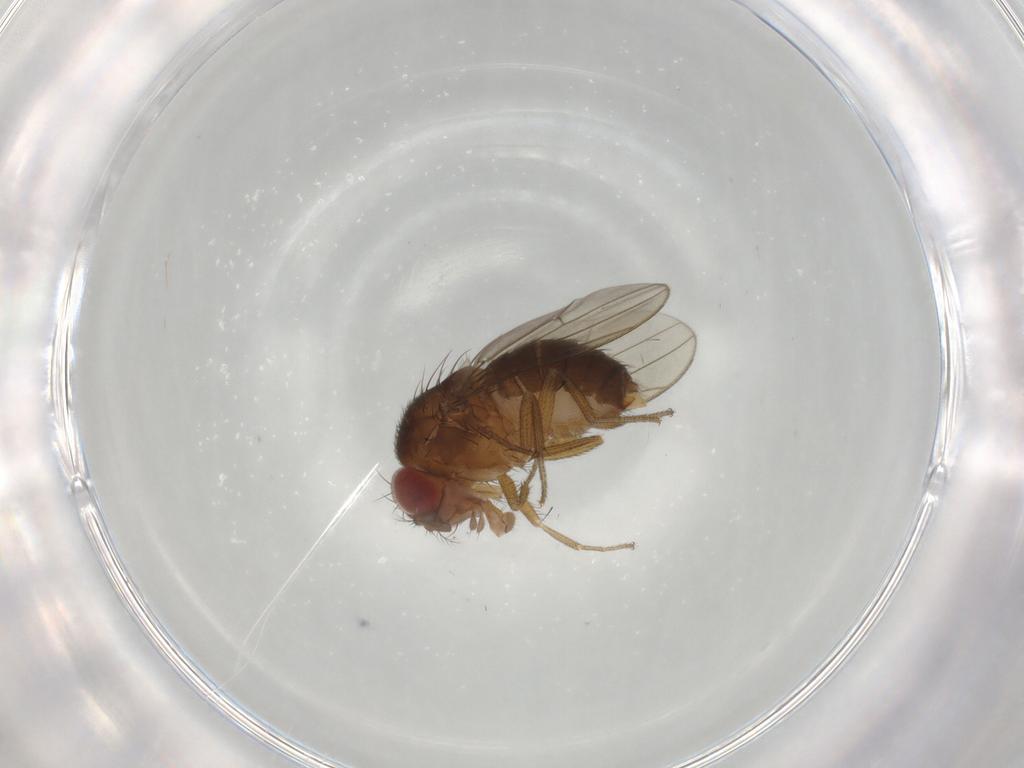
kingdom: Animalia
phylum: Arthropoda
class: Insecta
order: Diptera
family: Drosophilidae
